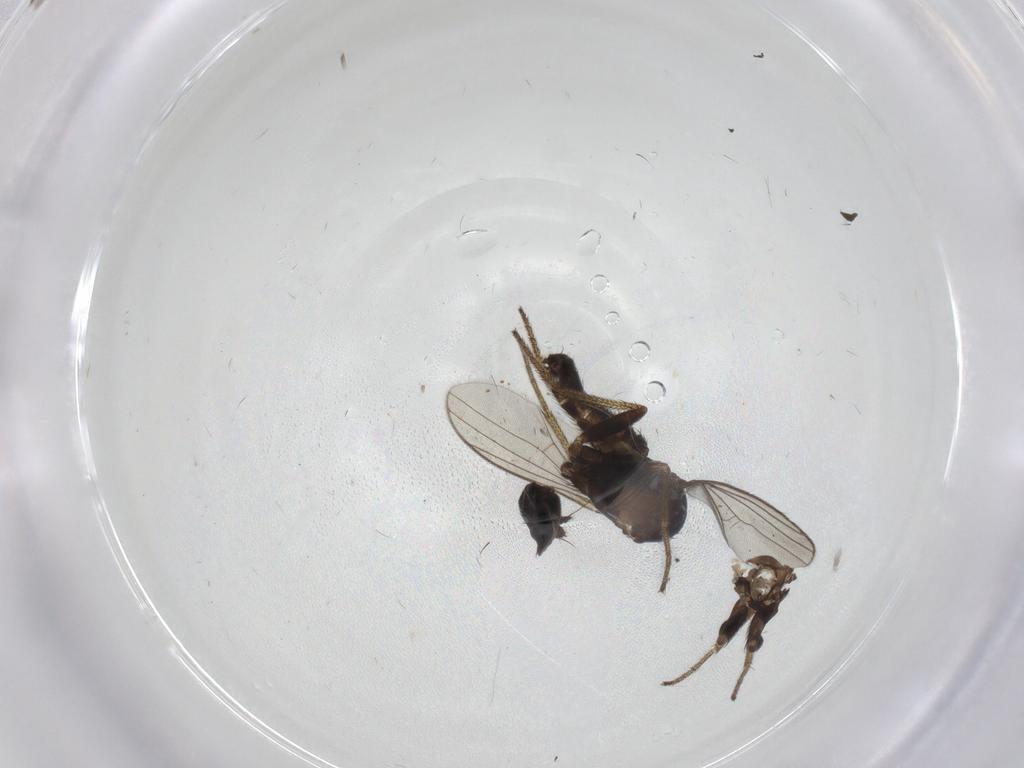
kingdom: Animalia
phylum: Arthropoda
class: Insecta
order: Diptera
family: Dolichopodidae
